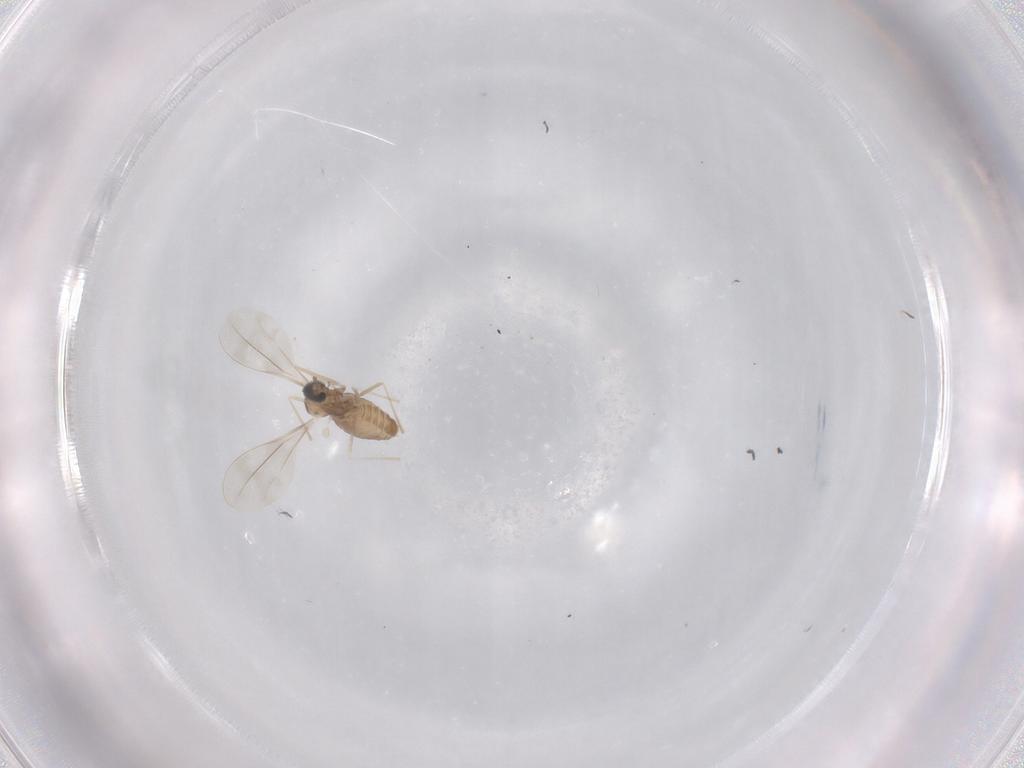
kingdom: Animalia
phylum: Arthropoda
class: Insecta
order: Diptera
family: Cecidomyiidae
